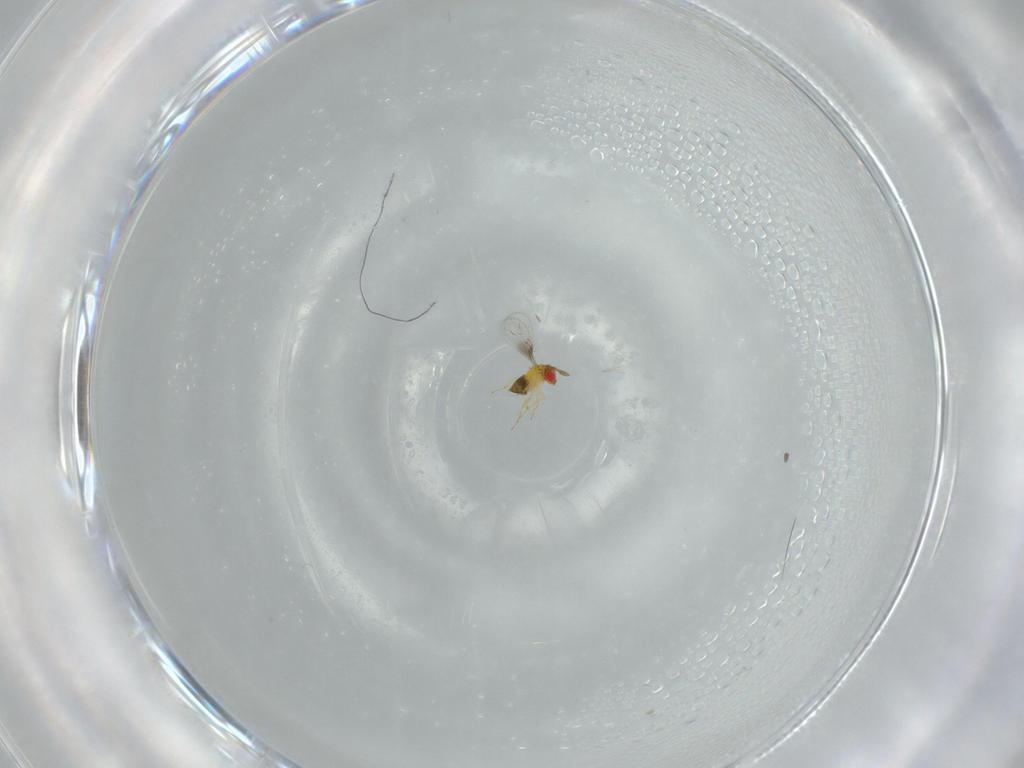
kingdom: Animalia
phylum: Arthropoda
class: Insecta
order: Hymenoptera
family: Trichogrammatidae
